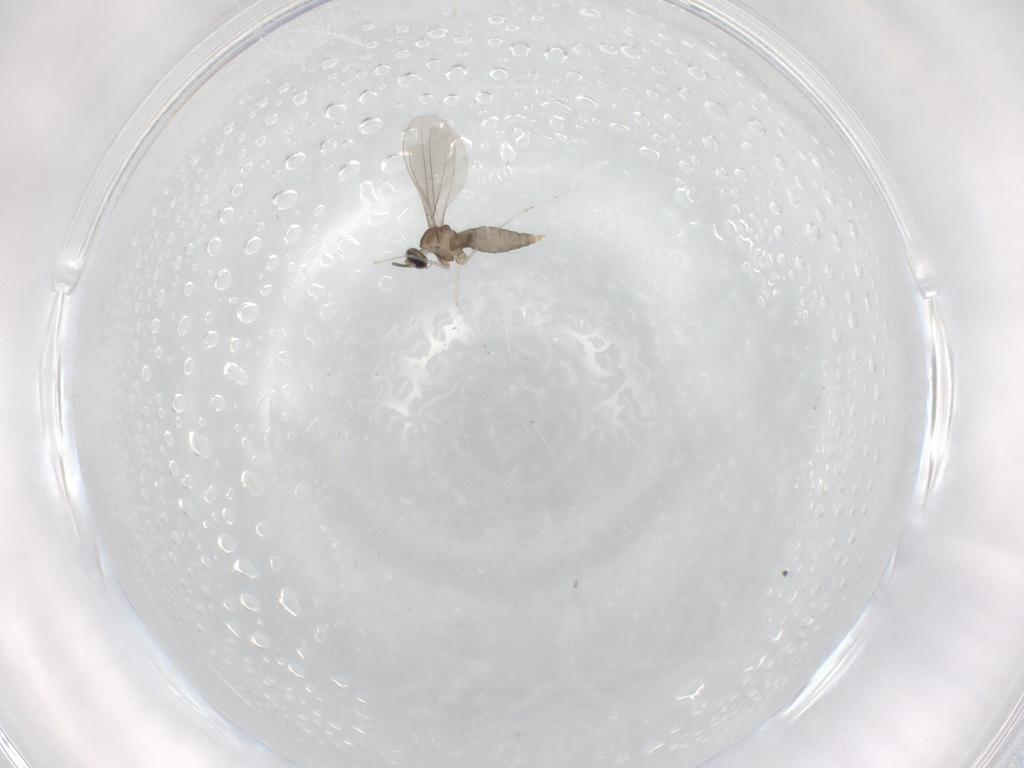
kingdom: Animalia
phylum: Arthropoda
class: Insecta
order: Diptera
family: Cecidomyiidae
